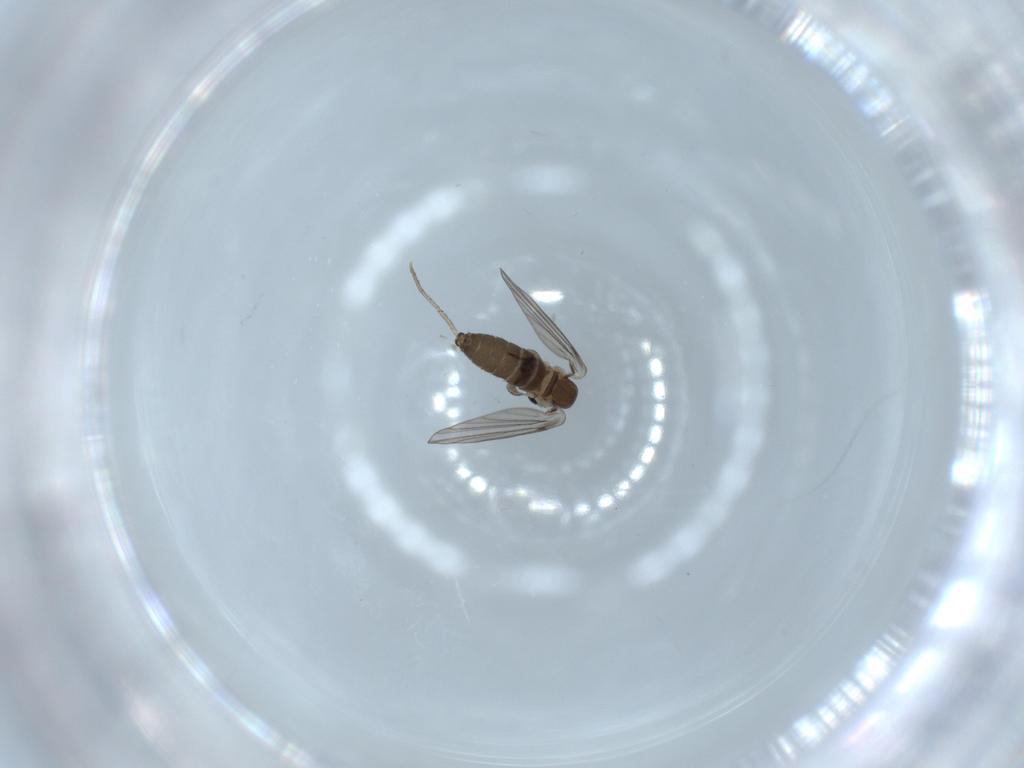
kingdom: Animalia
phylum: Arthropoda
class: Insecta
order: Diptera
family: Psychodidae
